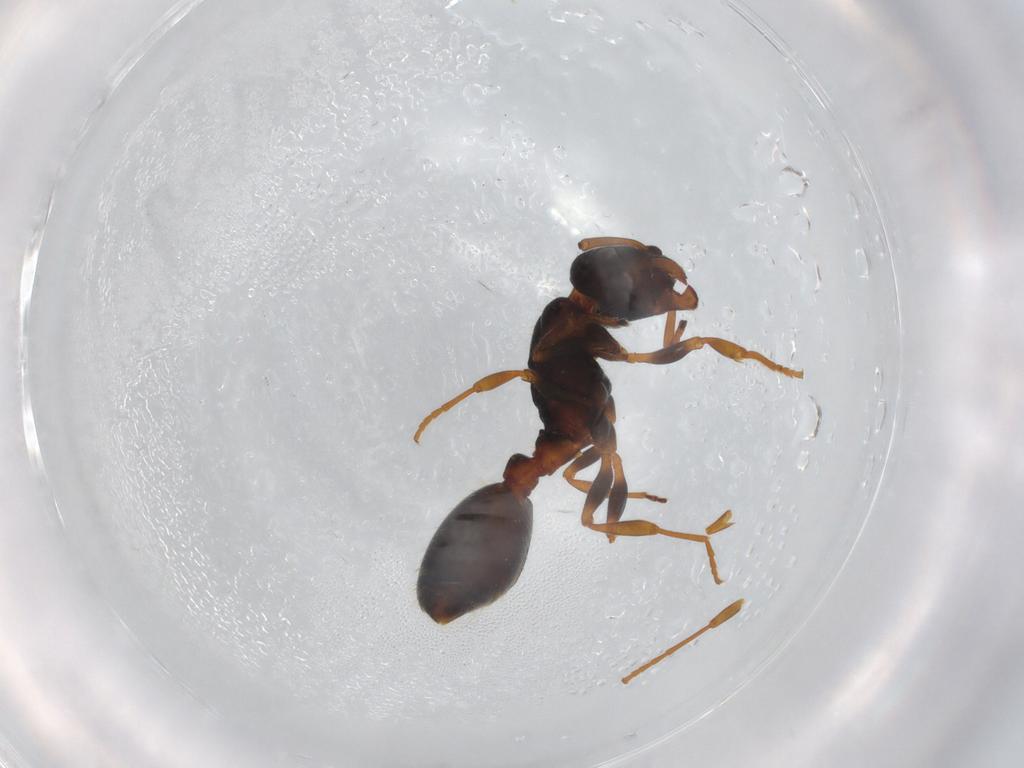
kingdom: Animalia
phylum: Arthropoda
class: Insecta
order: Hymenoptera
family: Formicidae
